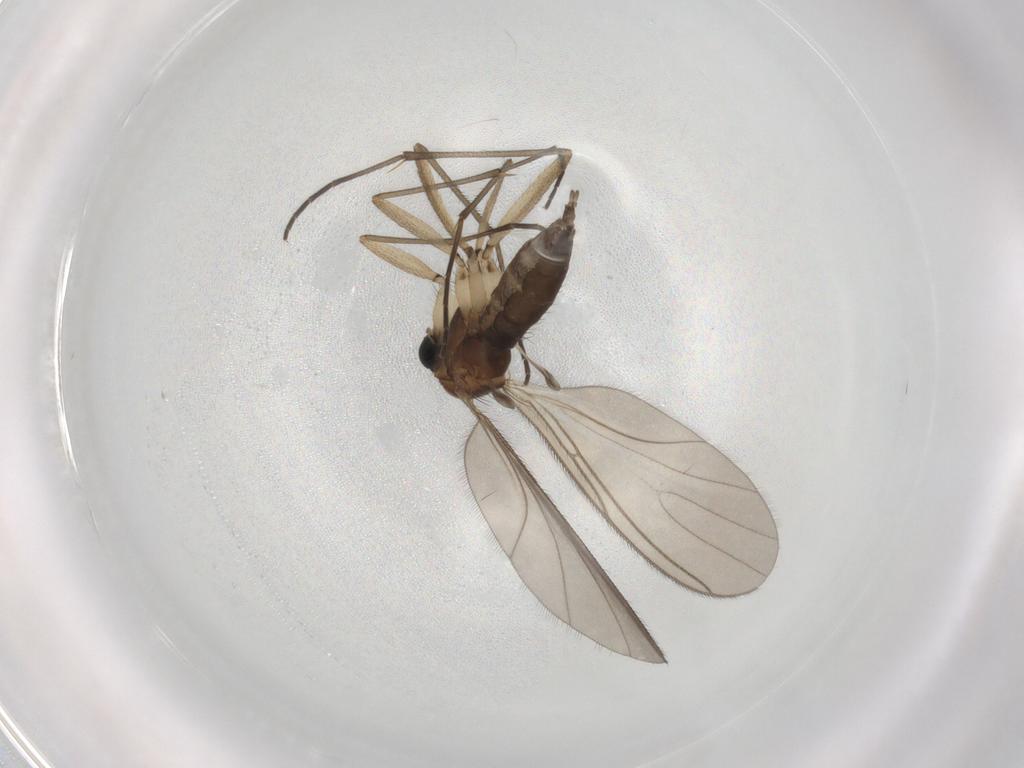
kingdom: Animalia
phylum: Arthropoda
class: Insecta
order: Diptera
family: Sciaridae
